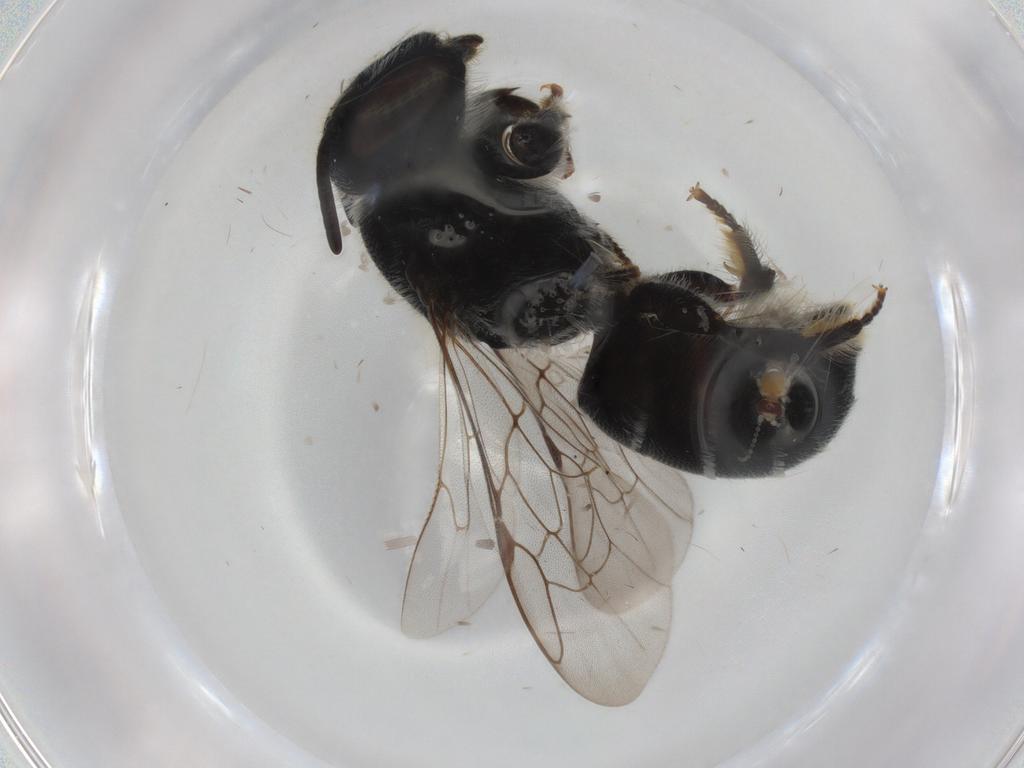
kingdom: Animalia
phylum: Arthropoda
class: Insecta
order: Hymenoptera
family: Megachilidae
